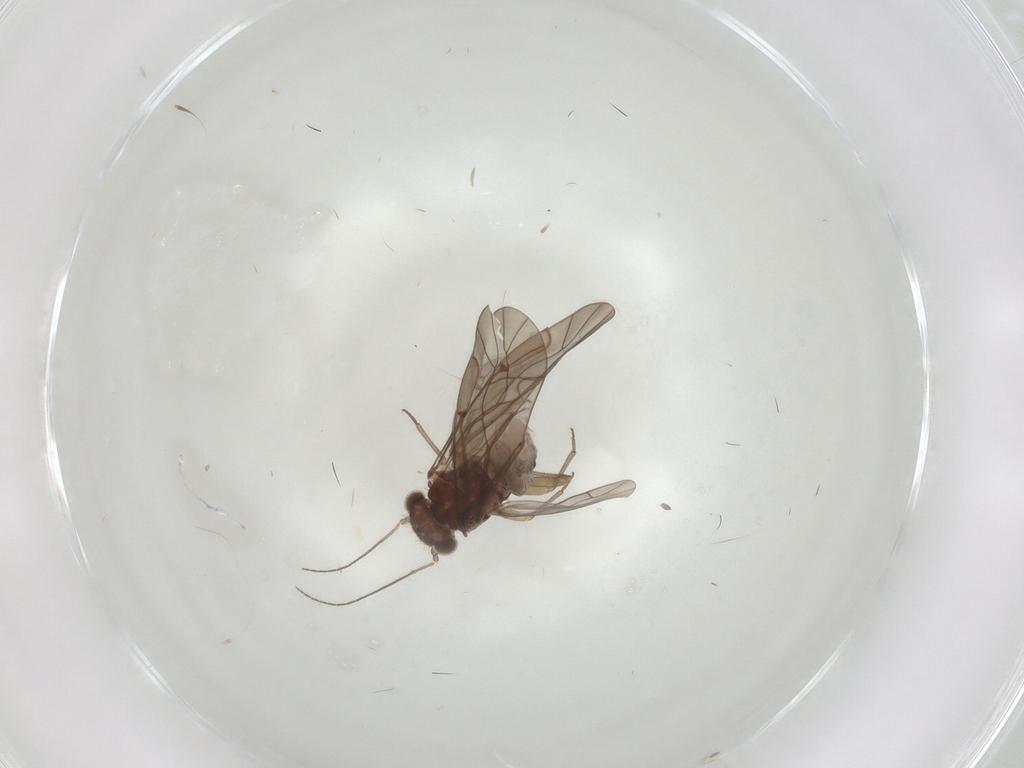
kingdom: Animalia
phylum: Arthropoda
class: Insecta
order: Psocodea
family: Lachesillidae
